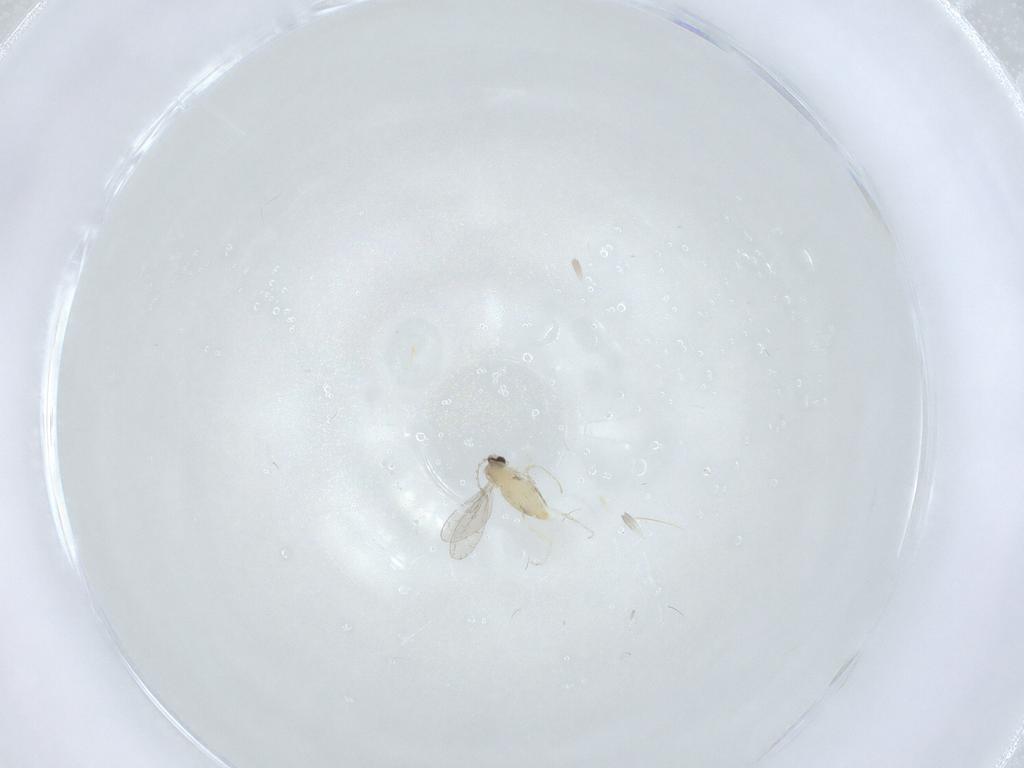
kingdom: Animalia
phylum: Arthropoda
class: Insecta
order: Diptera
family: Cecidomyiidae
